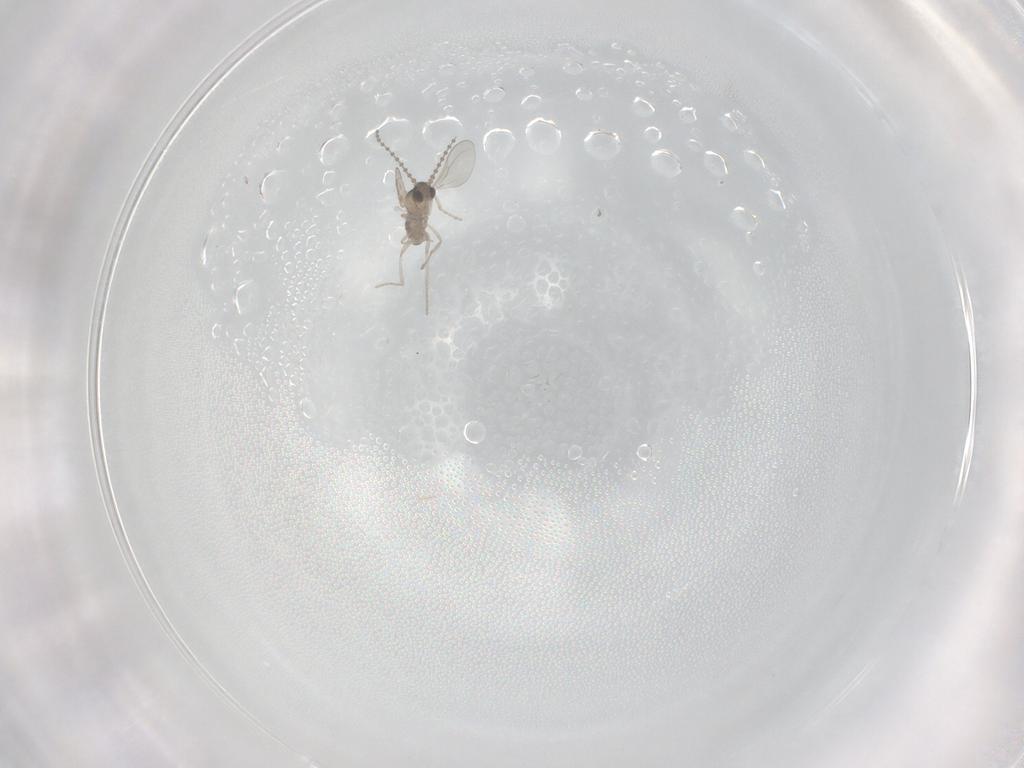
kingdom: Animalia
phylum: Arthropoda
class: Insecta
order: Diptera
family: Cecidomyiidae
